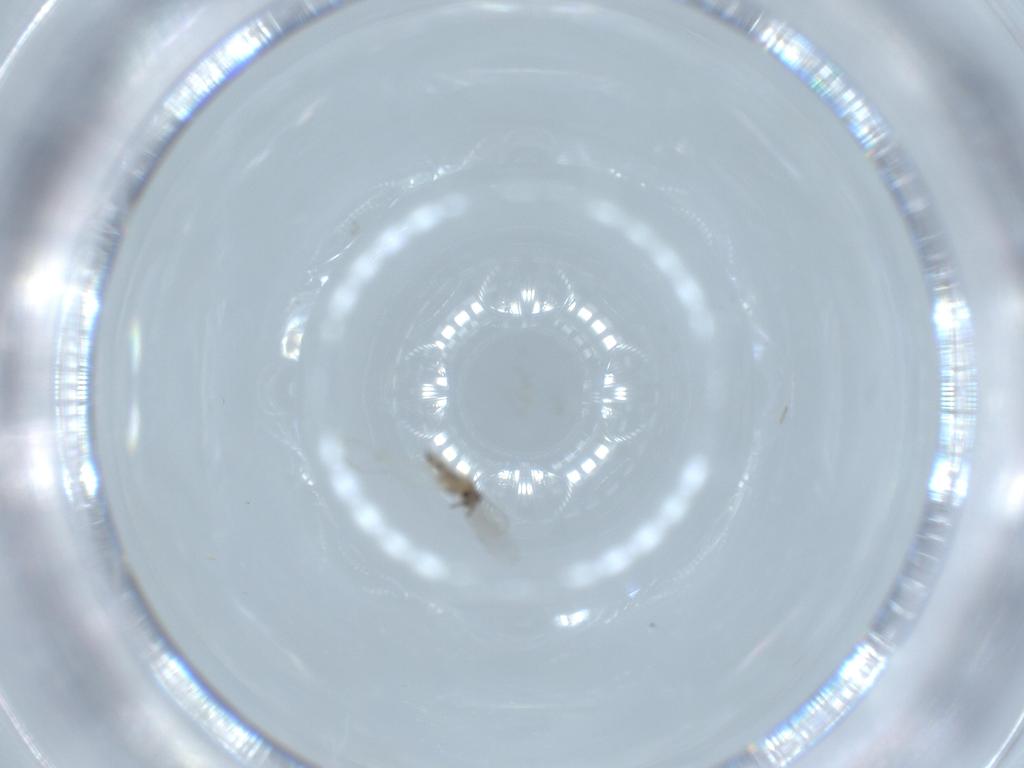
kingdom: Animalia
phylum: Arthropoda
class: Insecta
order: Diptera
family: Cecidomyiidae
